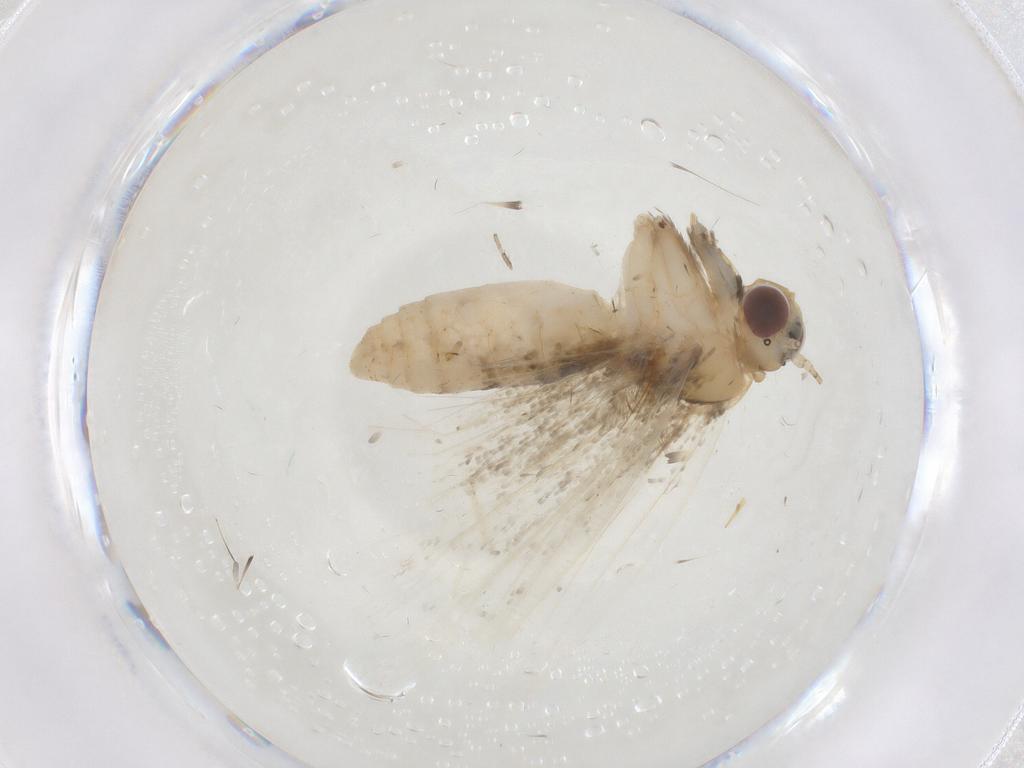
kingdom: Animalia
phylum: Arthropoda
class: Insecta
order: Lepidoptera
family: Erebidae
